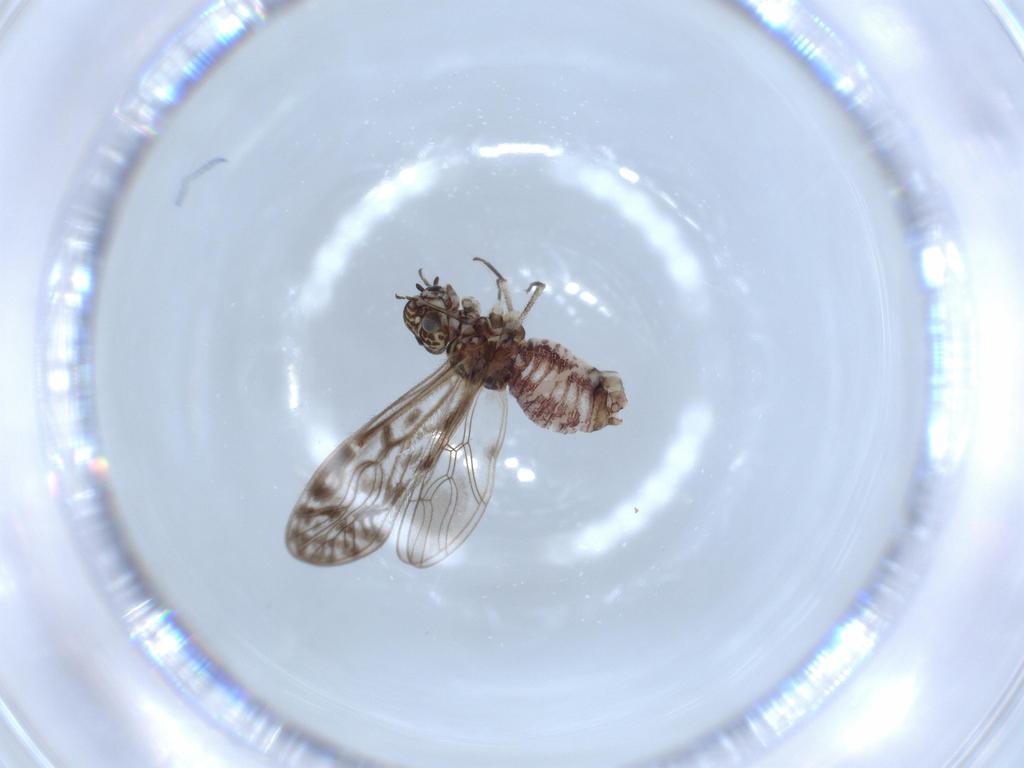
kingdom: Animalia
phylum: Arthropoda
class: Insecta
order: Psocodea
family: Philotarsidae
